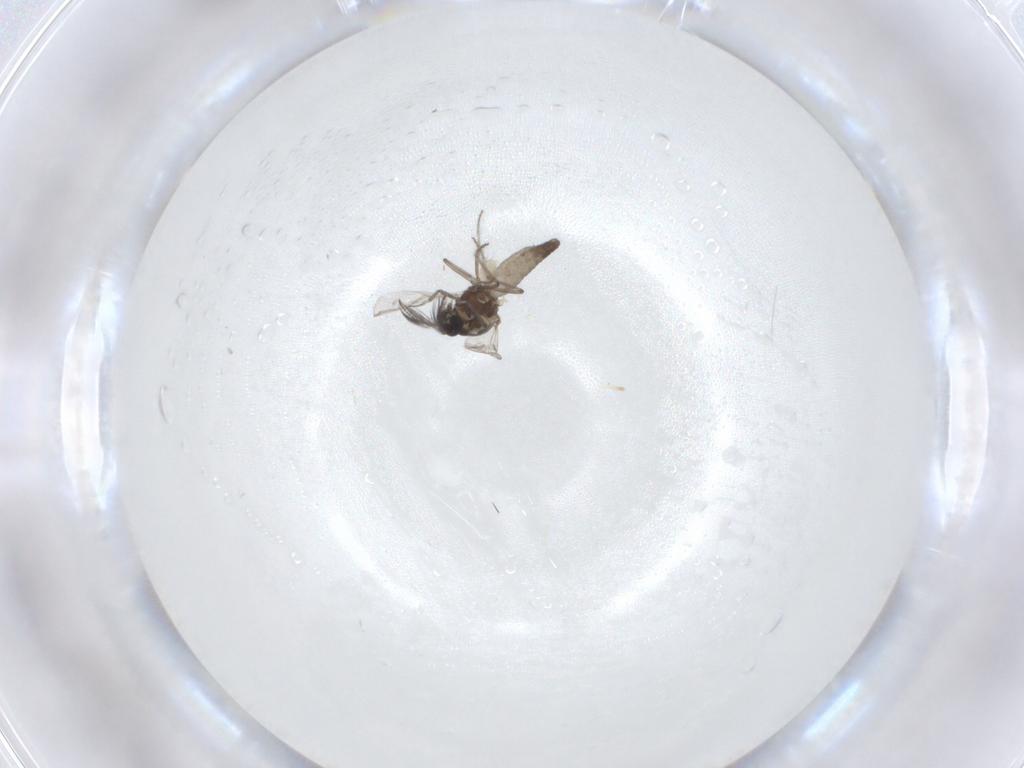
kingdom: Animalia
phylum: Arthropoda
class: Insecta
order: Diptera
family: Ceratopogonidae
